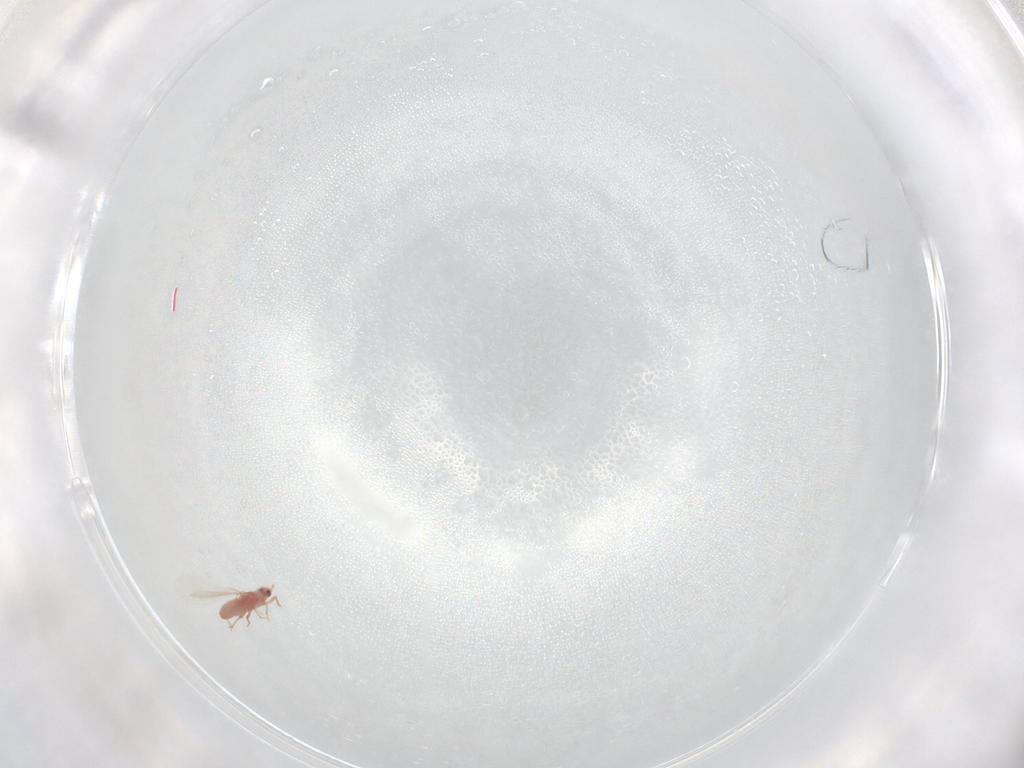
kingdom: Animalia
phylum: Arthropoda
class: Insecta
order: Hemiptera
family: Pseudococcidae
